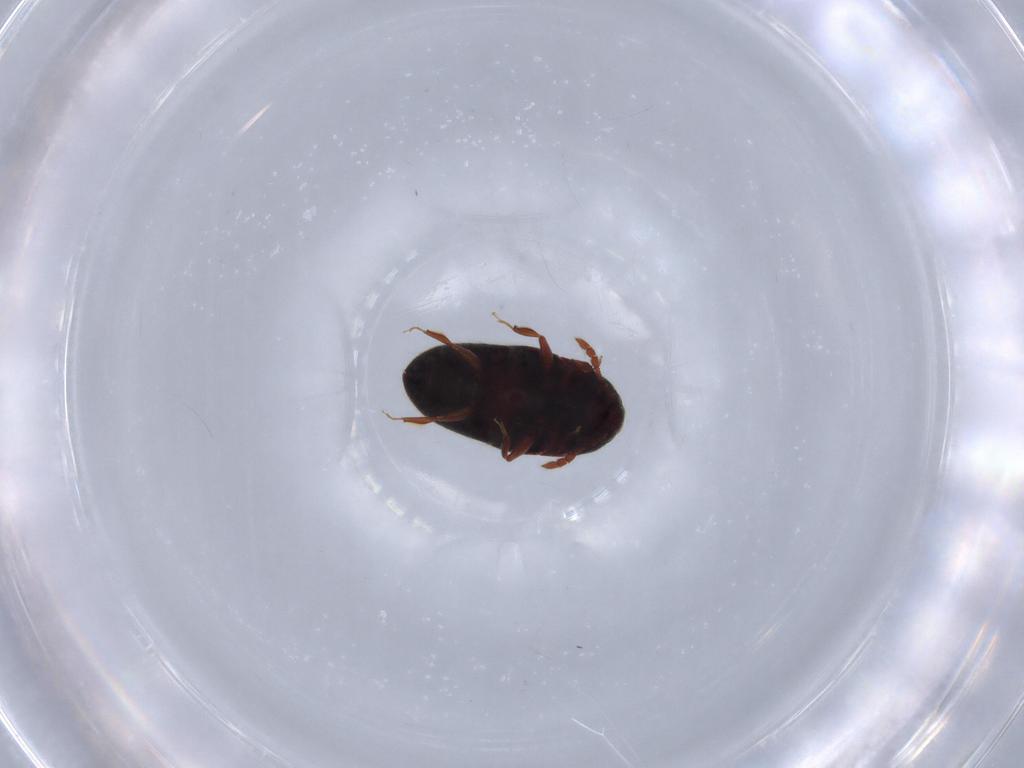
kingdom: Animalia
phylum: Arthropoda
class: Insecta
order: Coleoptera
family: Throscidae
